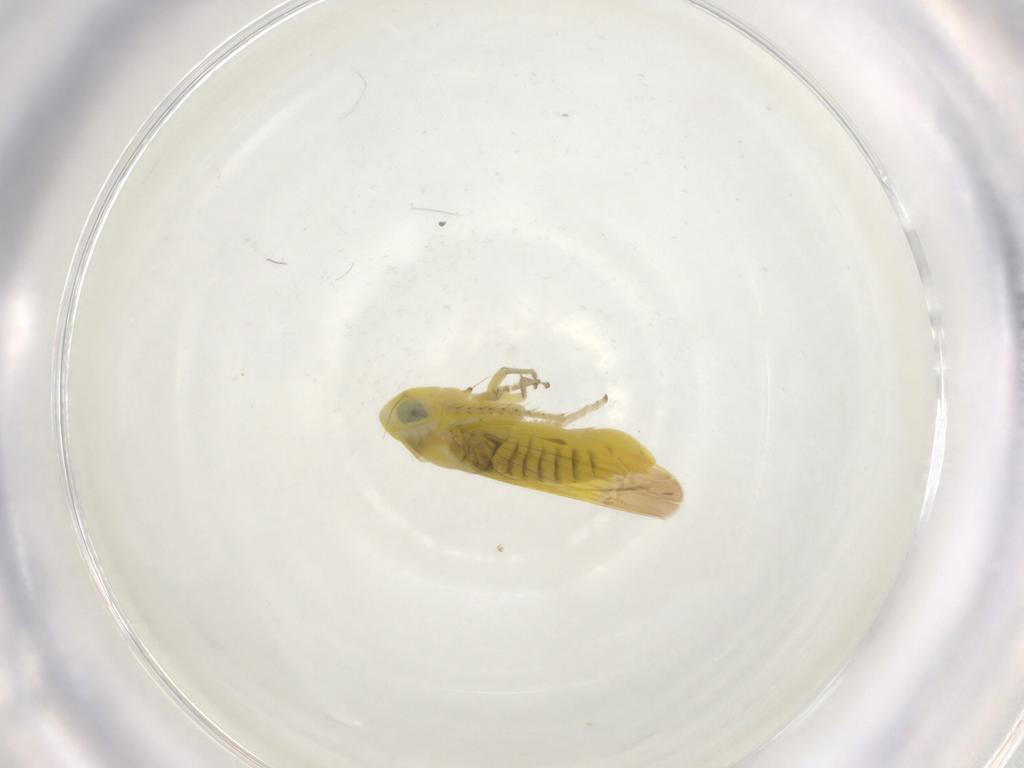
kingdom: Animalia
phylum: Arthropoda
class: Insecta
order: Hemiptera
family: Cicadellidae
